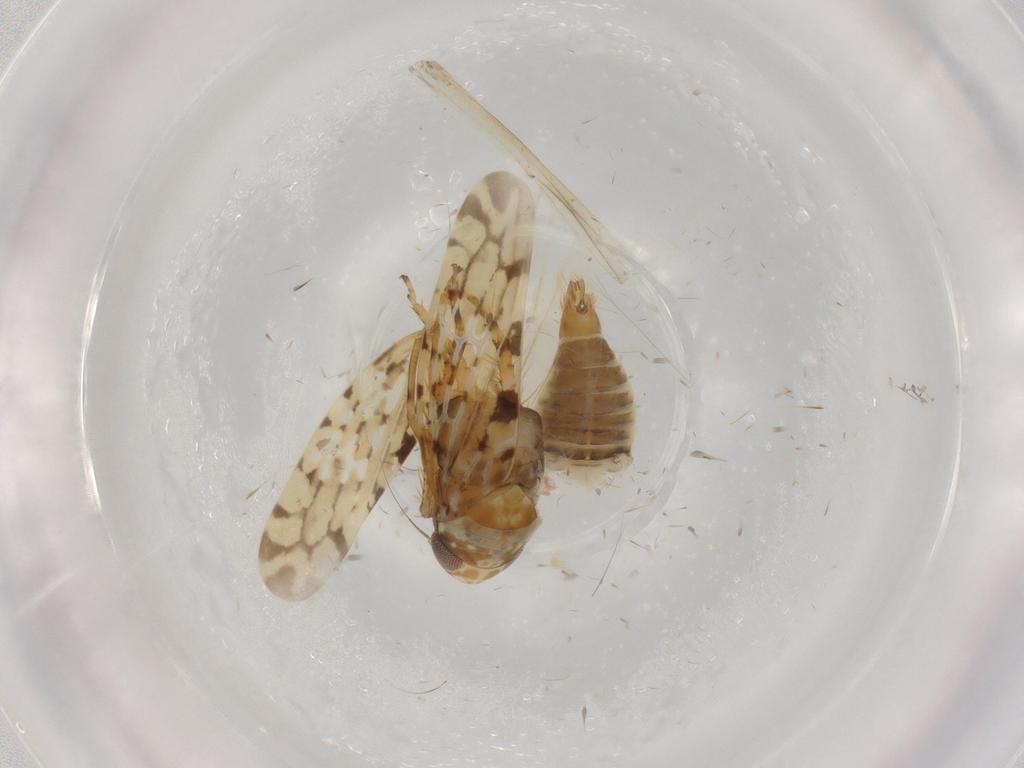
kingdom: Animalia
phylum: Arthropoda
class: Insecta
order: Hemiptera
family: Cicadellidae
